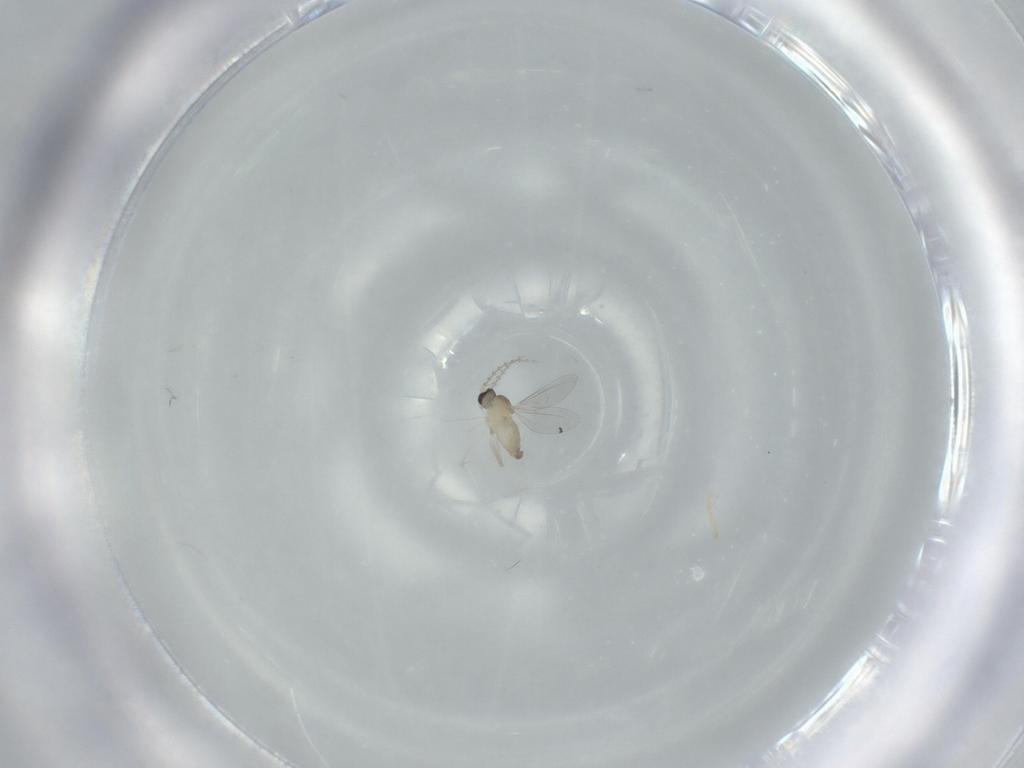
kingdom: Animalia
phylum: Arthropoda
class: Insecta
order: Diptera
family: Cecidomyiidae
